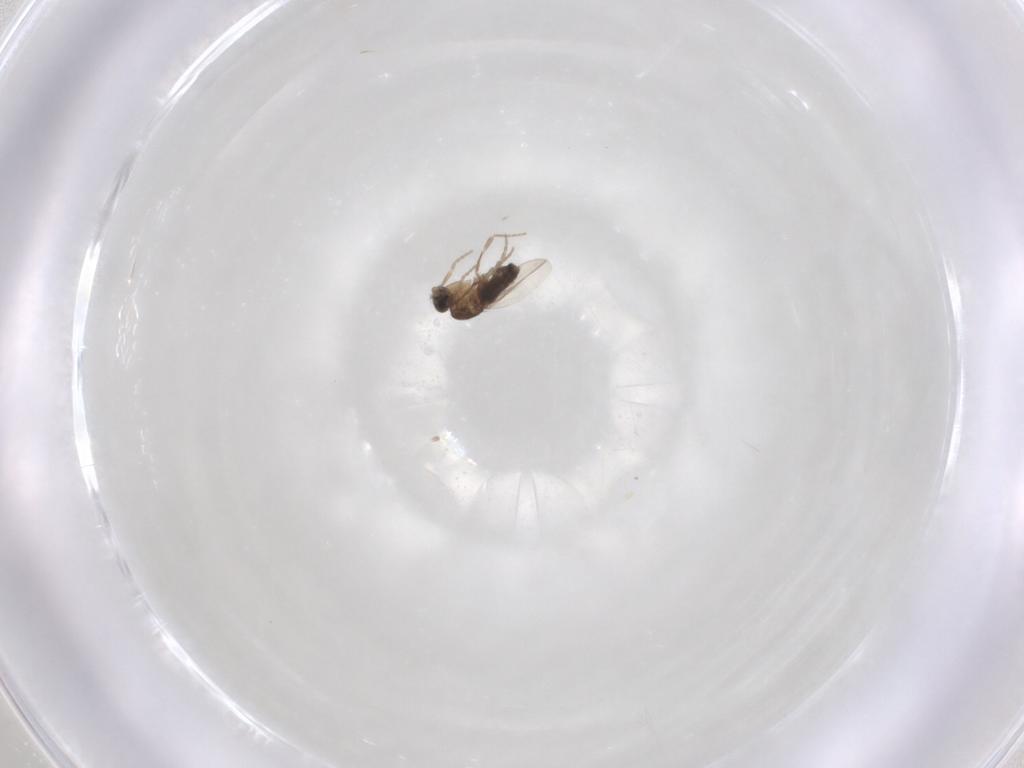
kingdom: Animalia
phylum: Arthropoda
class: Insecta
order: Diptera
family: Phoridae
